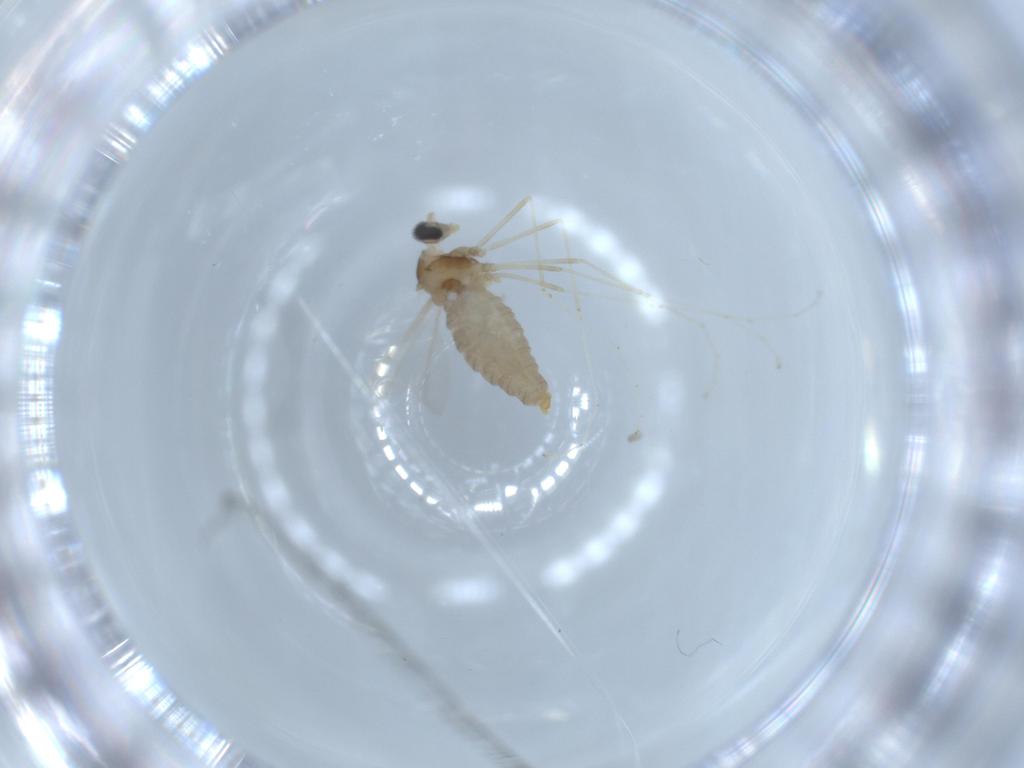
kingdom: Animalia
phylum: Arthropoda
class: Insecta
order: Diptera
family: Cecidomyiidae
